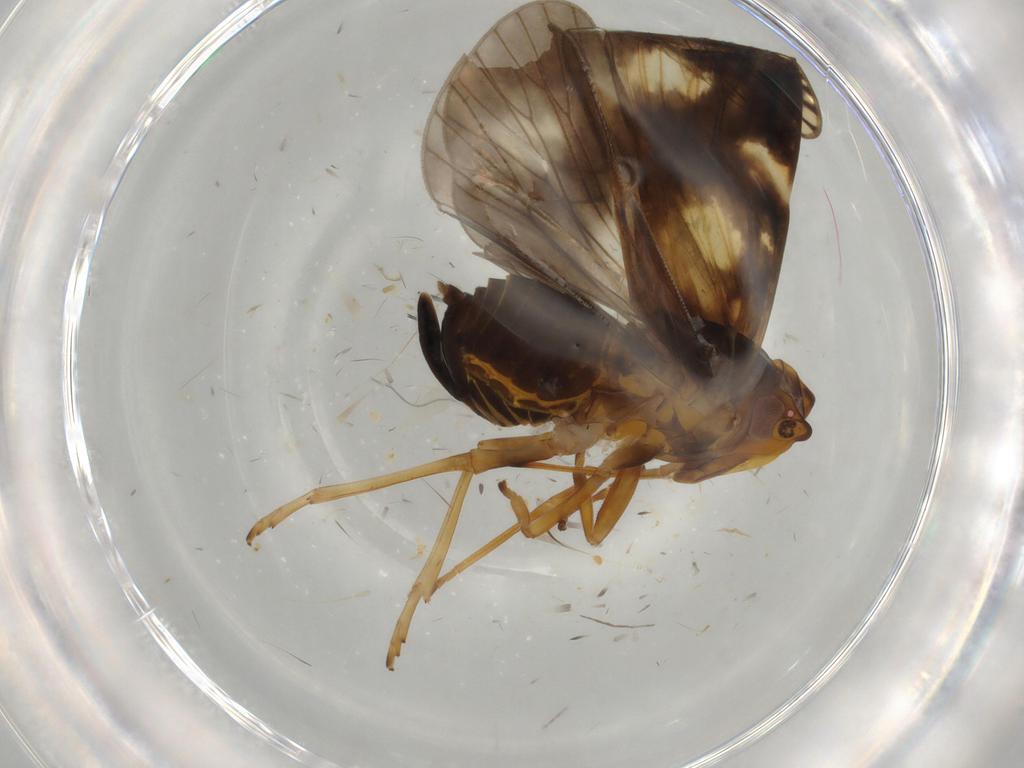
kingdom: Animalia
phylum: Arthropoda
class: Insecta
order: Hemiptera
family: Cixiidae
